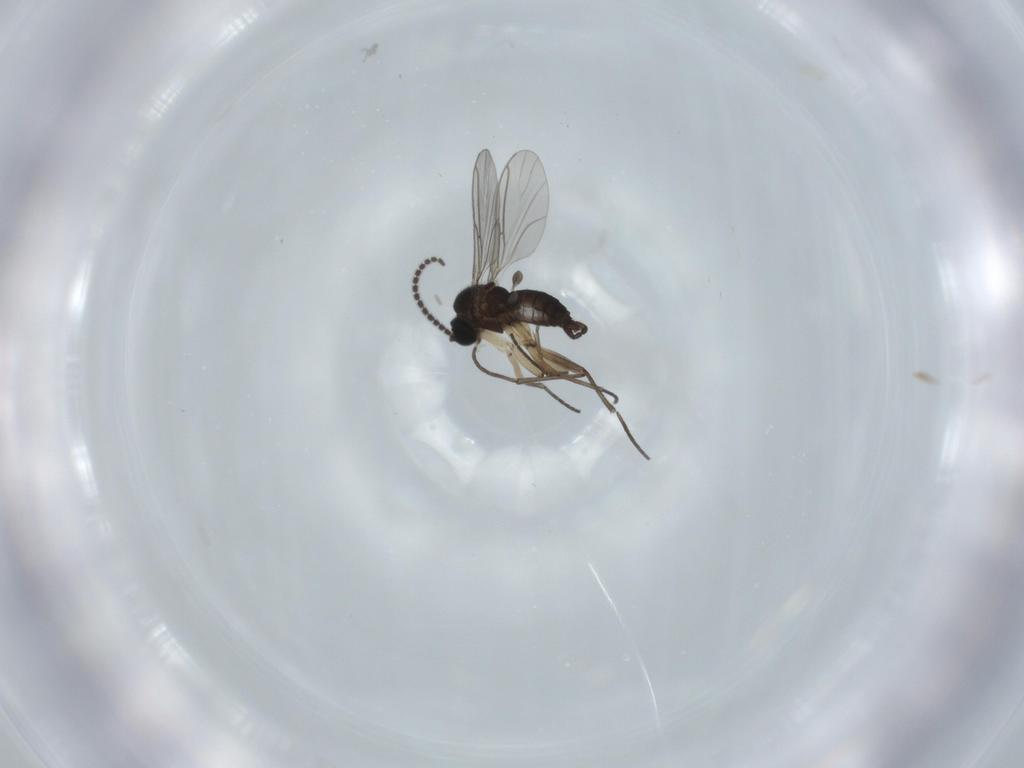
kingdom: Animalia
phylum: Arthropoda
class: Insecta
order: Diptera
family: Sciaridae
